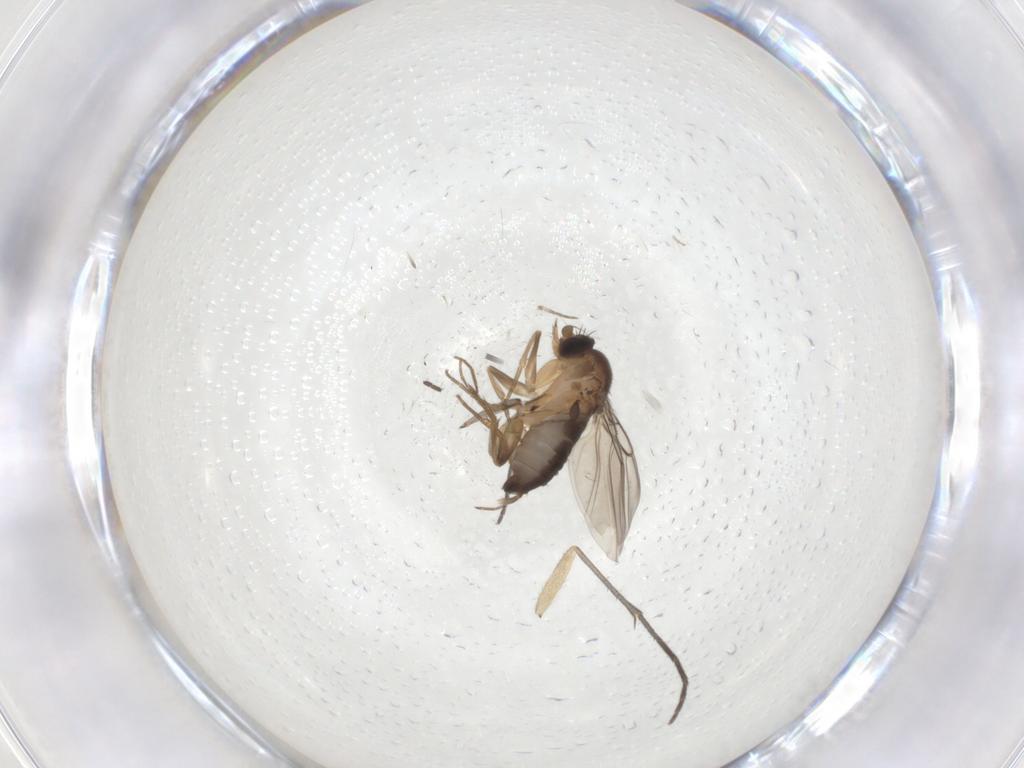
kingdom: Animalia
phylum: Arthropoda
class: Insecta
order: Diptera
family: Phoridae
